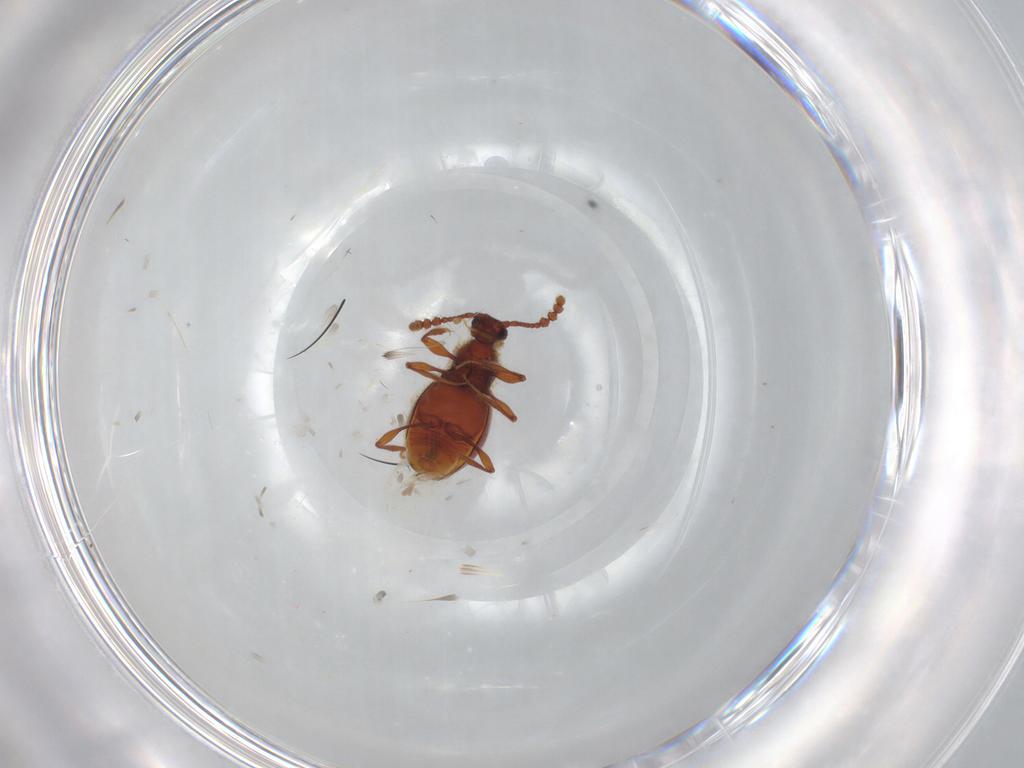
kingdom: Animalia
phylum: Arthropoda
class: Insecta
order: Coleoptera
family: Staphylinidae
